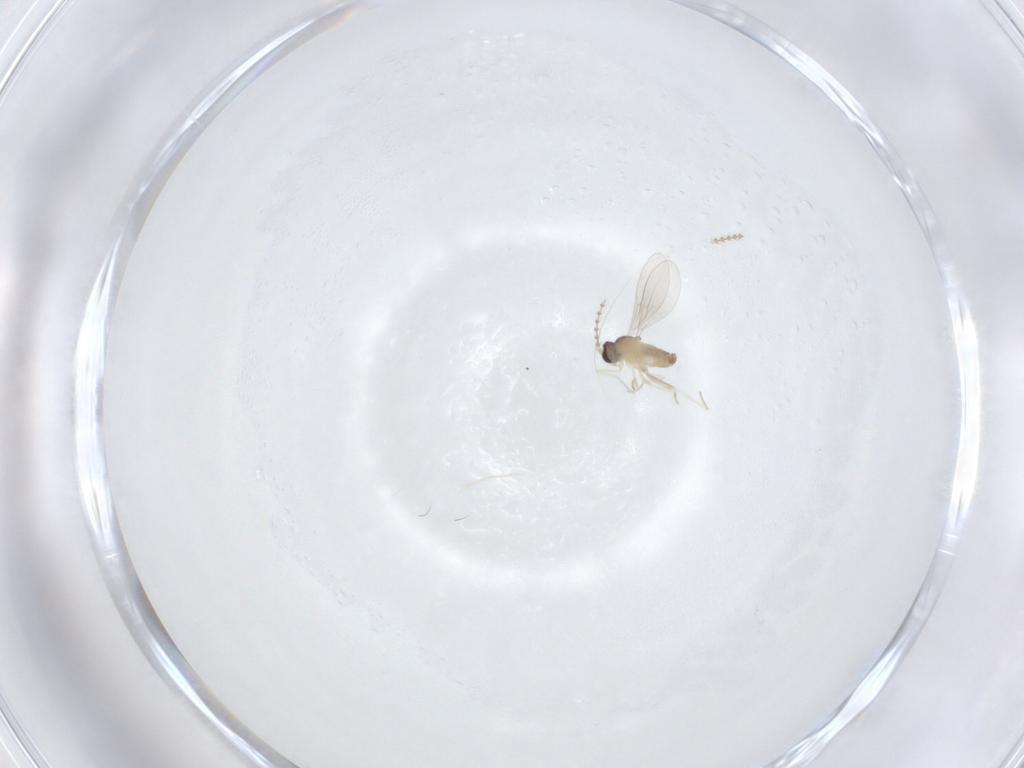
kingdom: Animalia
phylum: Arthropoda
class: Insecta
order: Diptera
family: Cecidomyiidae
